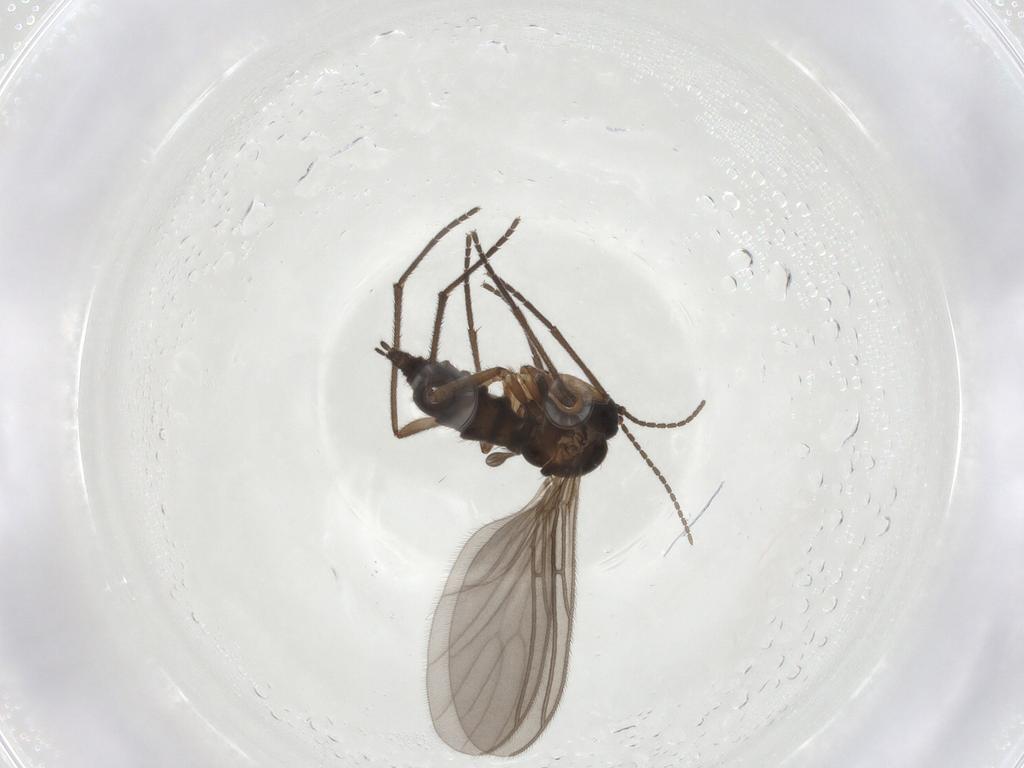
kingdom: Animalia
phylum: Arthropoda
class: Insecta
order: Diptera
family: Sciaridae
